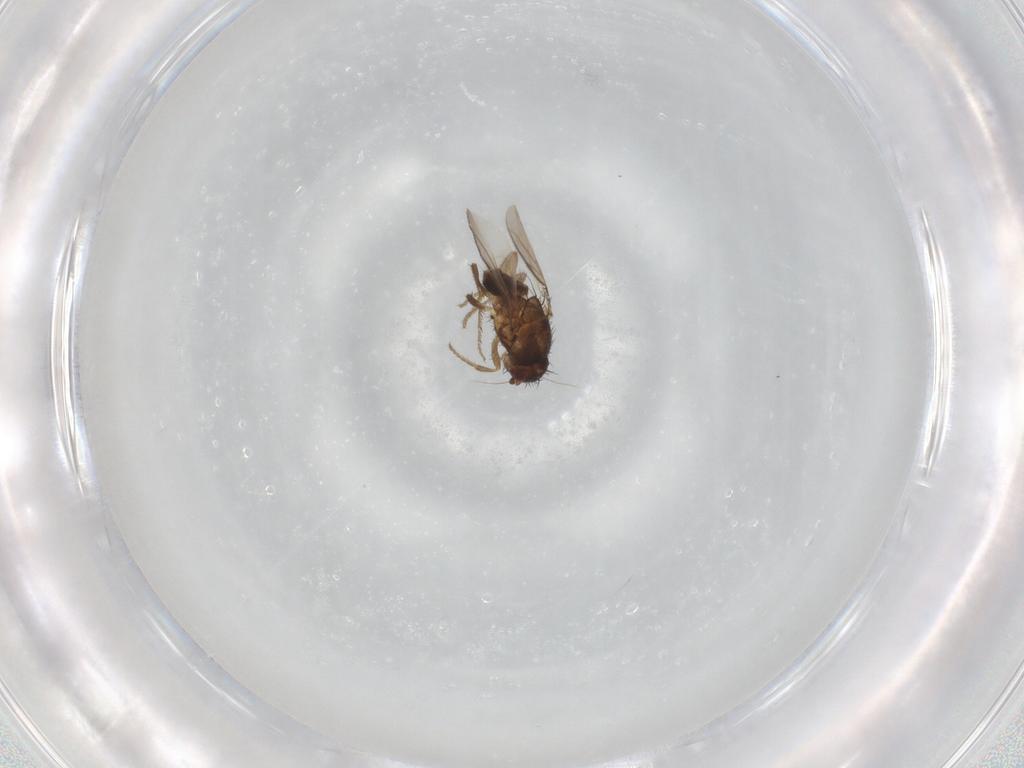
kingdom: Animalia
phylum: Arthropoda
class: Insecta
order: Diptera
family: Sphaeroceridae
